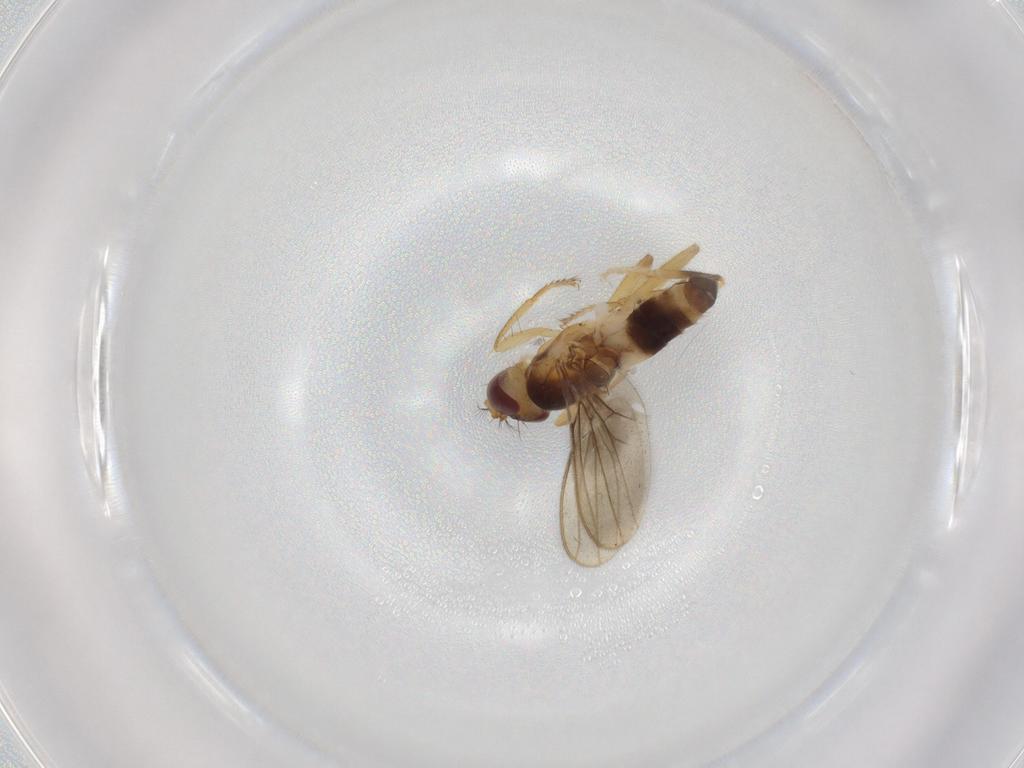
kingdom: Animalia
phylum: Arthropoda
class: Insecta
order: Diptera
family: Periscelididae
